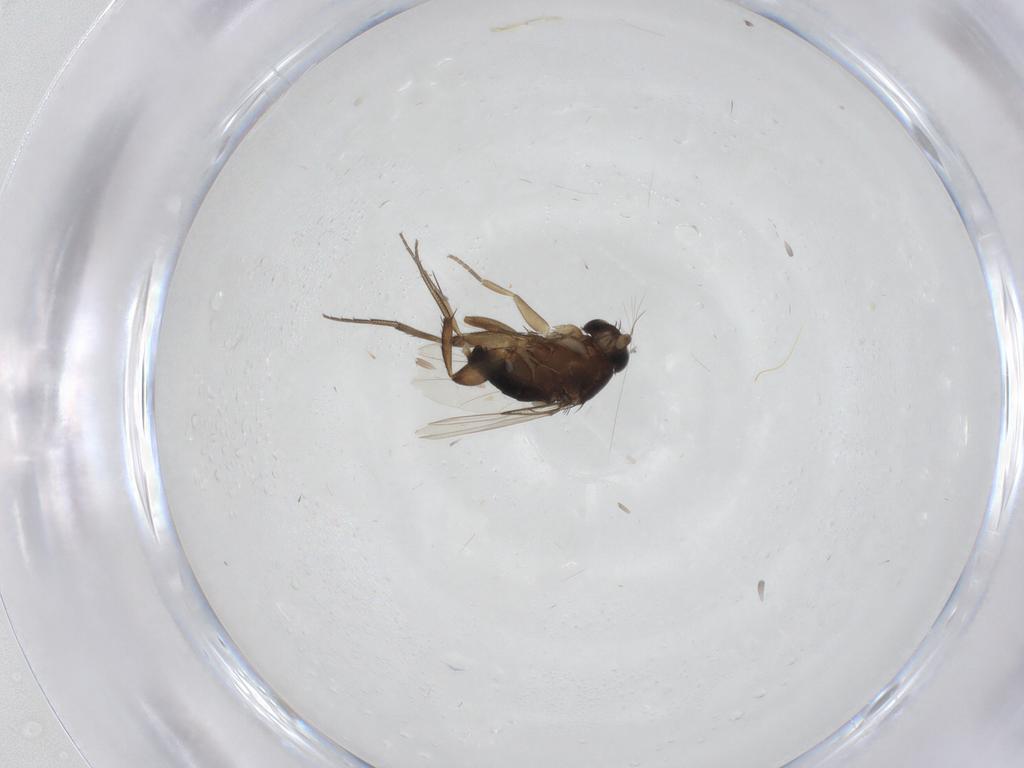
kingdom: Animalia
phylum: Arthropoda
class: Insecta
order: Diptera
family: Phoridae
